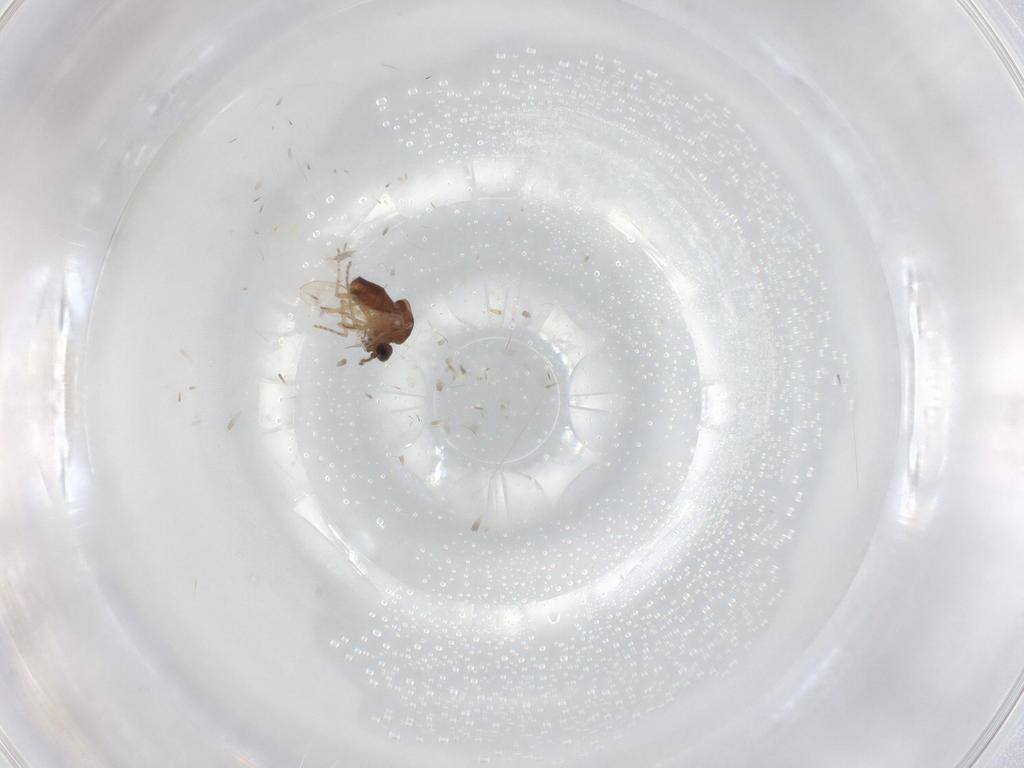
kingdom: Animalia
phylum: Arthropoda
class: Insecta
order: Diptera
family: Ceratopogonidae
